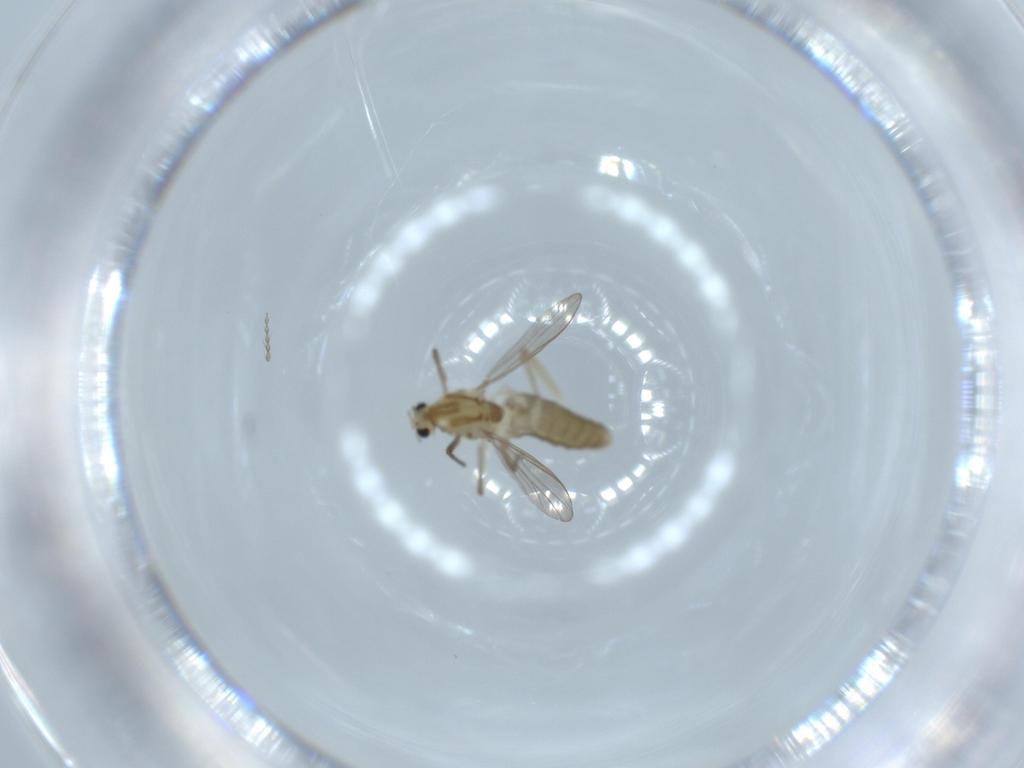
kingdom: Animalia
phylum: Arthropoda
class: Insecta
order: Diptera
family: Chironomidae
